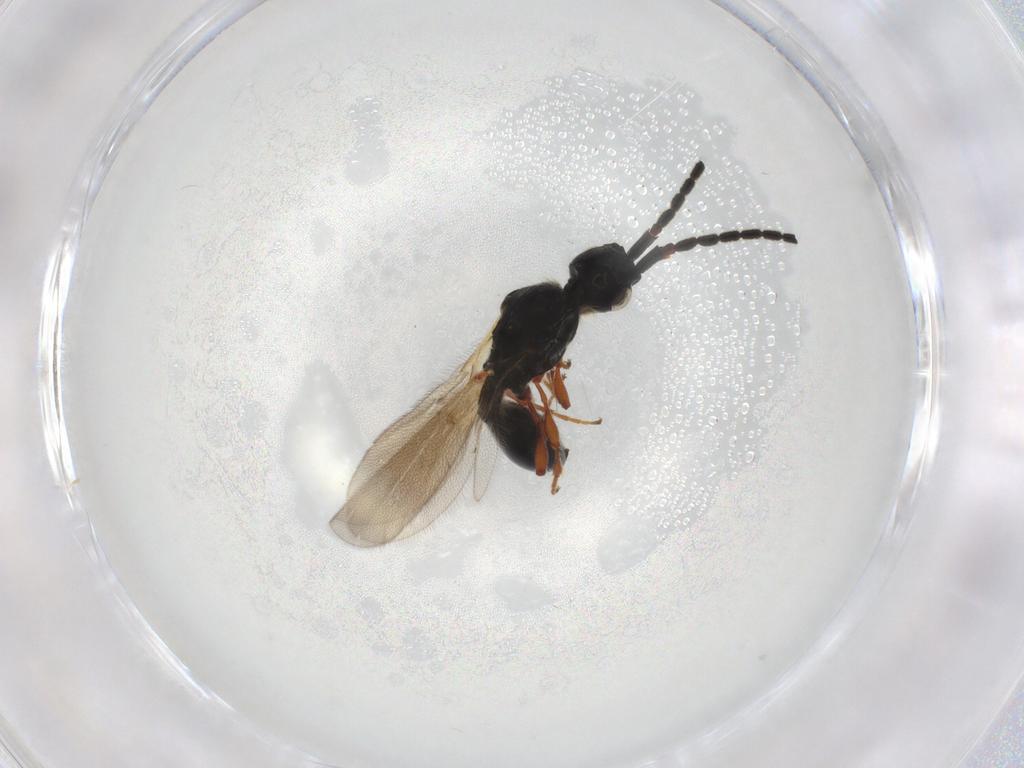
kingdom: Animalia
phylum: Arthropoda
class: Insecta
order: Hymenoptera
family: Diapriidae
